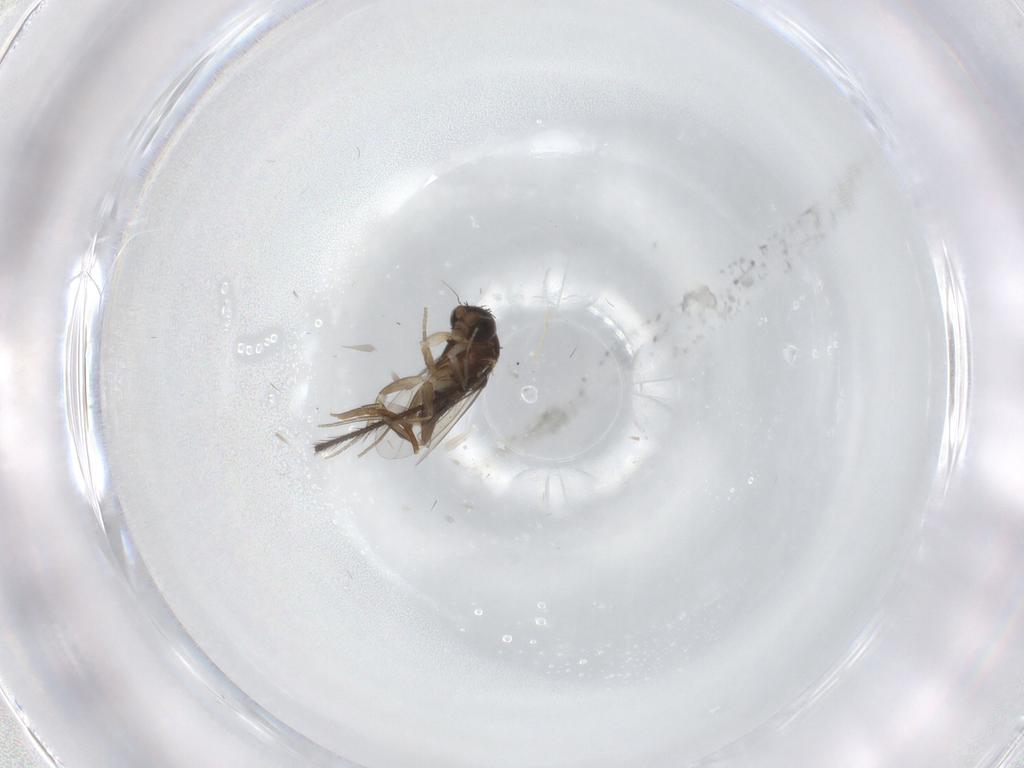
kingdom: Animalia
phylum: Arthropoda
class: Insecta
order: Diptera
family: Phoridae
